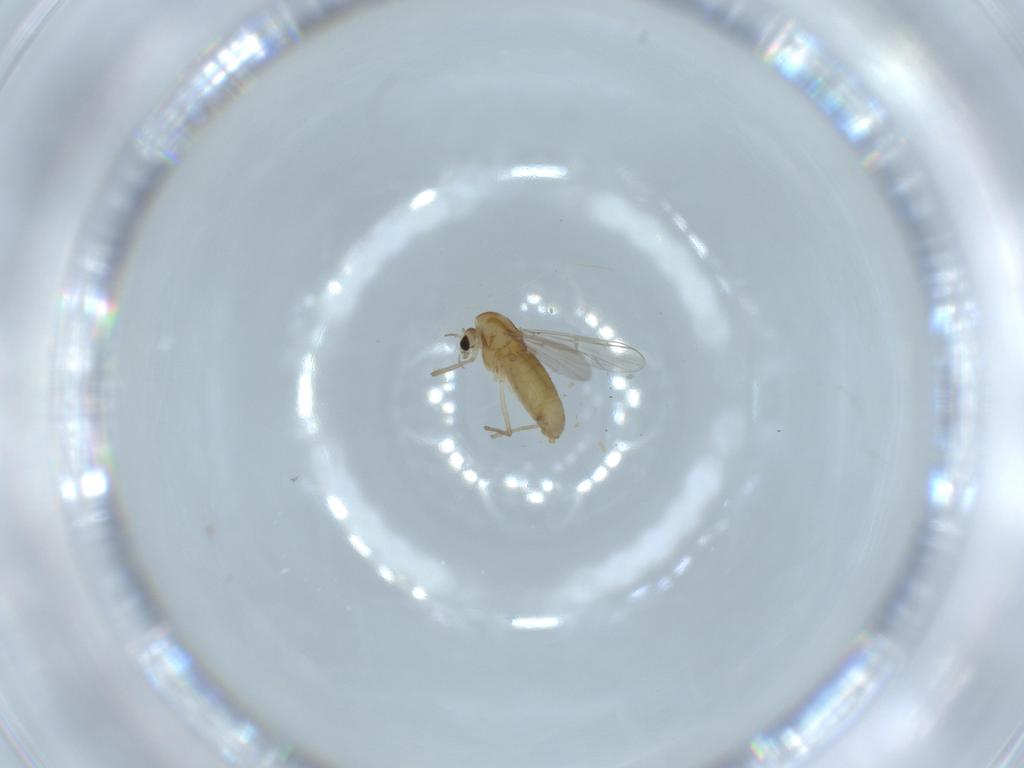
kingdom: Animalia
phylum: Arthropoda
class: Insecta
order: Diptera
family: Chironomidae
